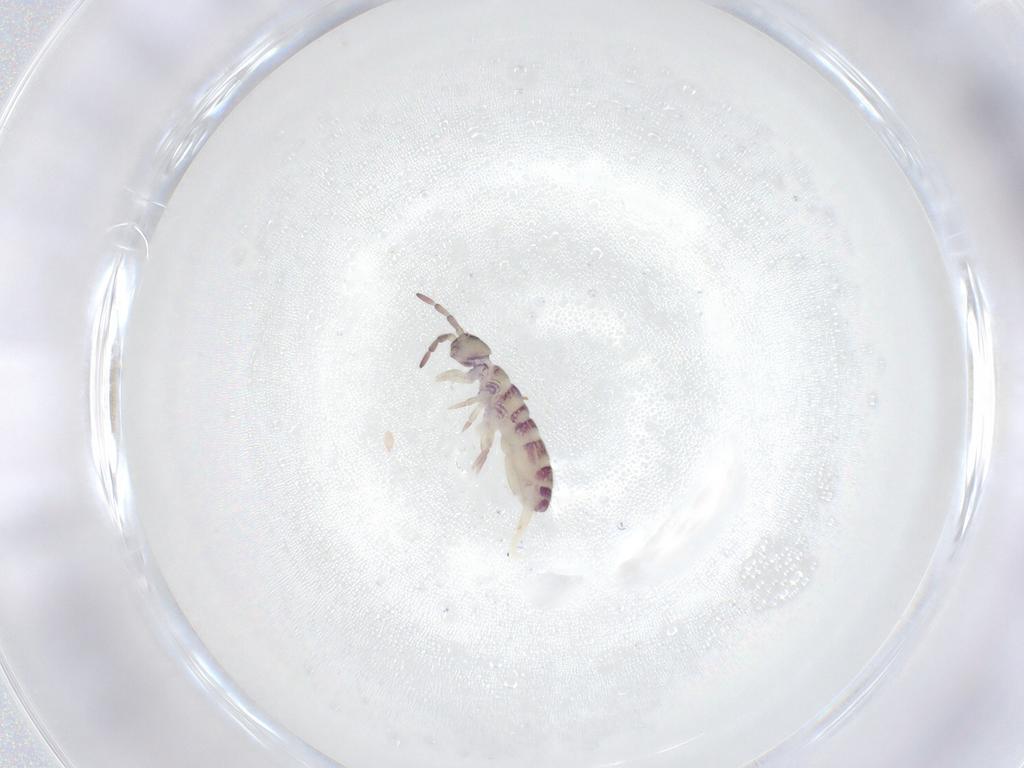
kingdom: Animalia
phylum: Arthropoda
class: Collembola
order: Entomobryomorpha
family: Isotomidae
